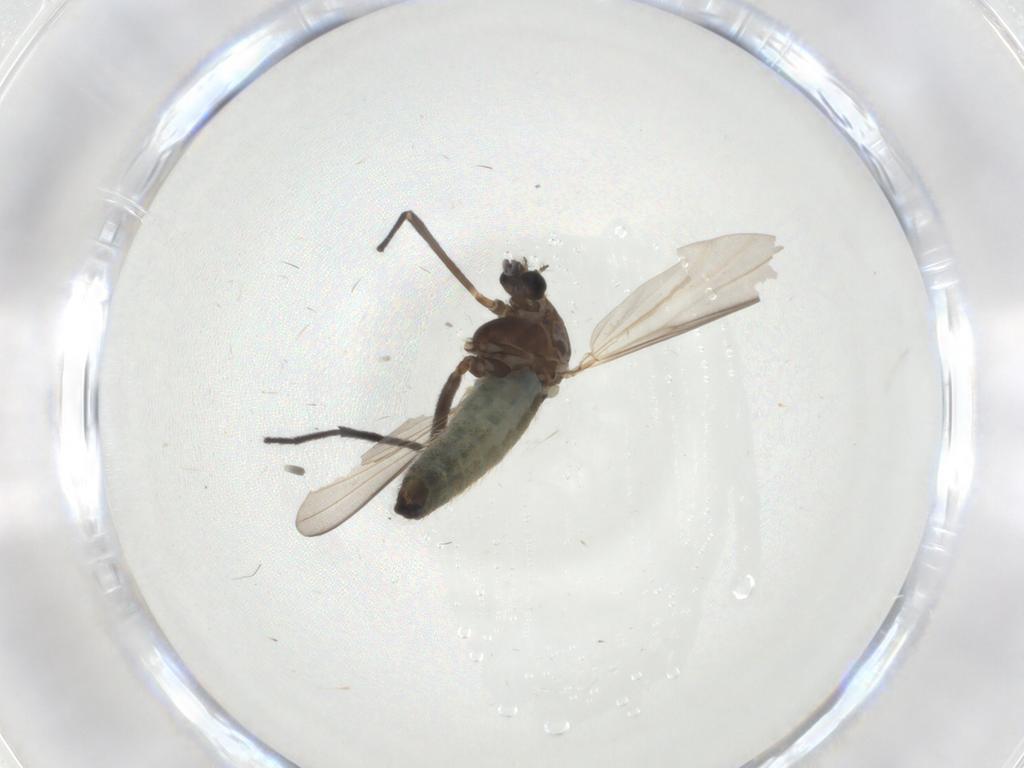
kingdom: Animalia
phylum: Arthropoda
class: Insecta
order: Diptera
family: Chironomidae
